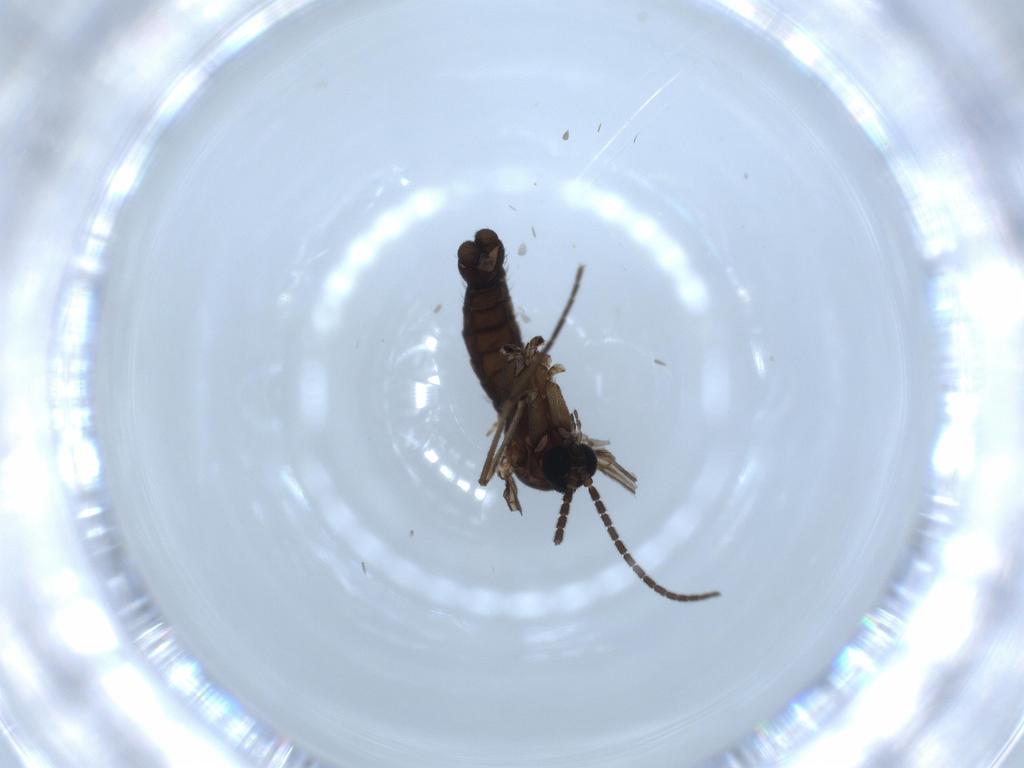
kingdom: Animalia
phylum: Arthropoda
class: Insecta
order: Diptera
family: Sciaridae
